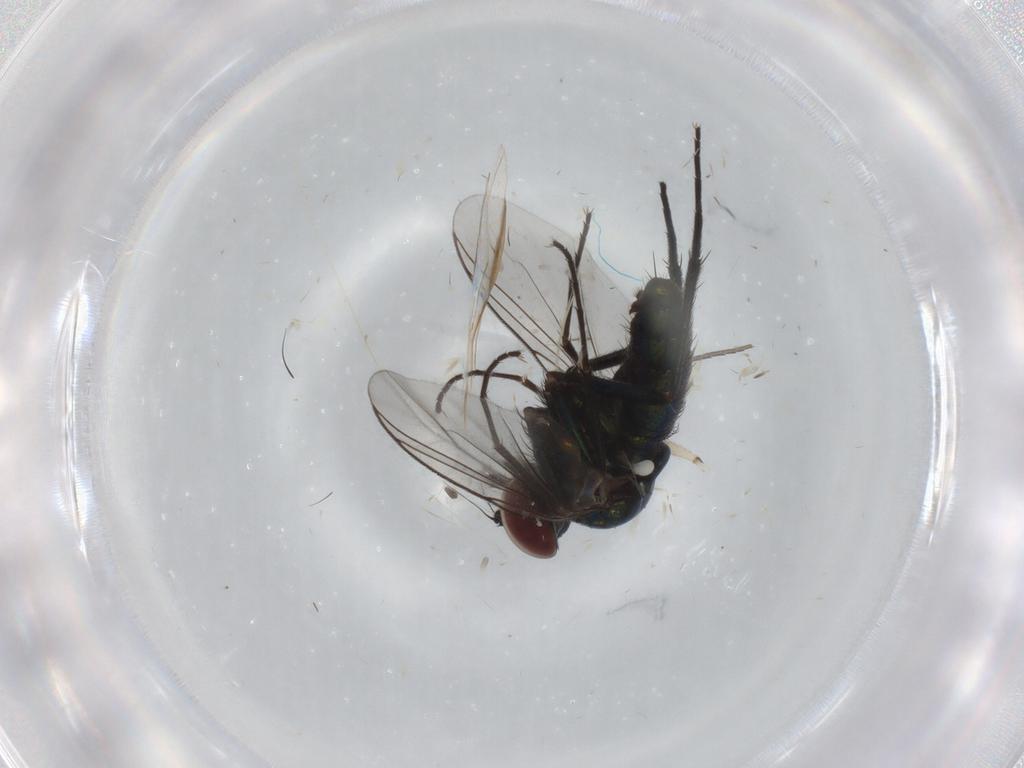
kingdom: Animalia
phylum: Arthropoda
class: Insecta
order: Diptera
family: Dolichopodidae
